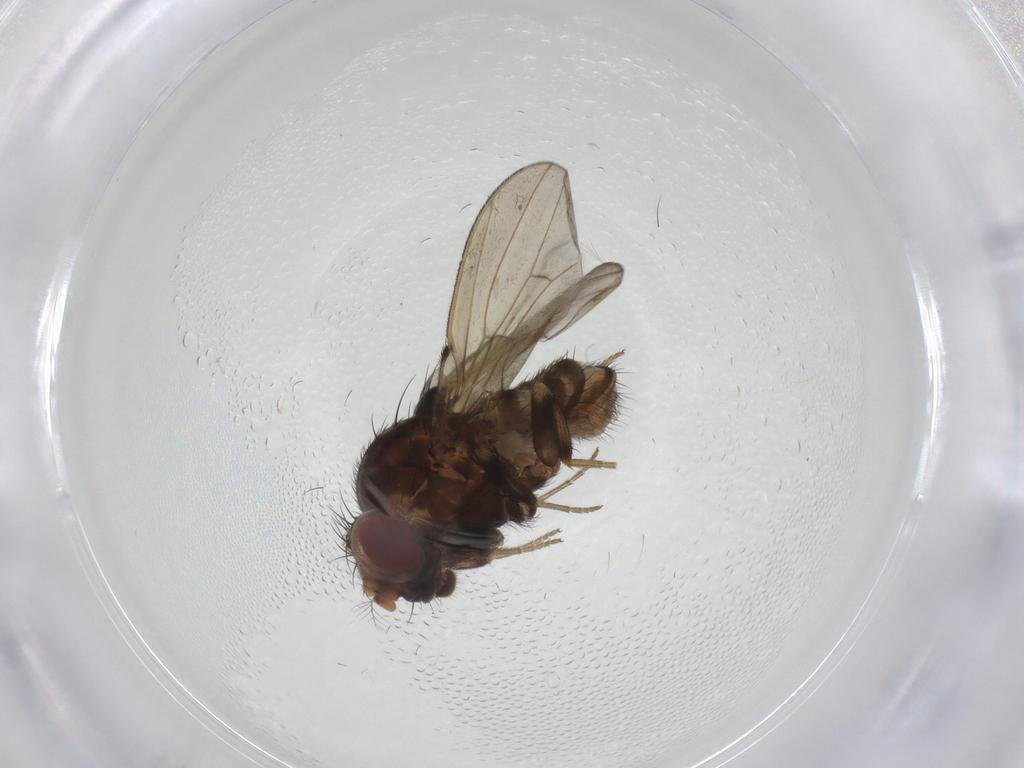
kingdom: Animalia
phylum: Arthropoda
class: Insecta
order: Diptera
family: Drosophilidae
